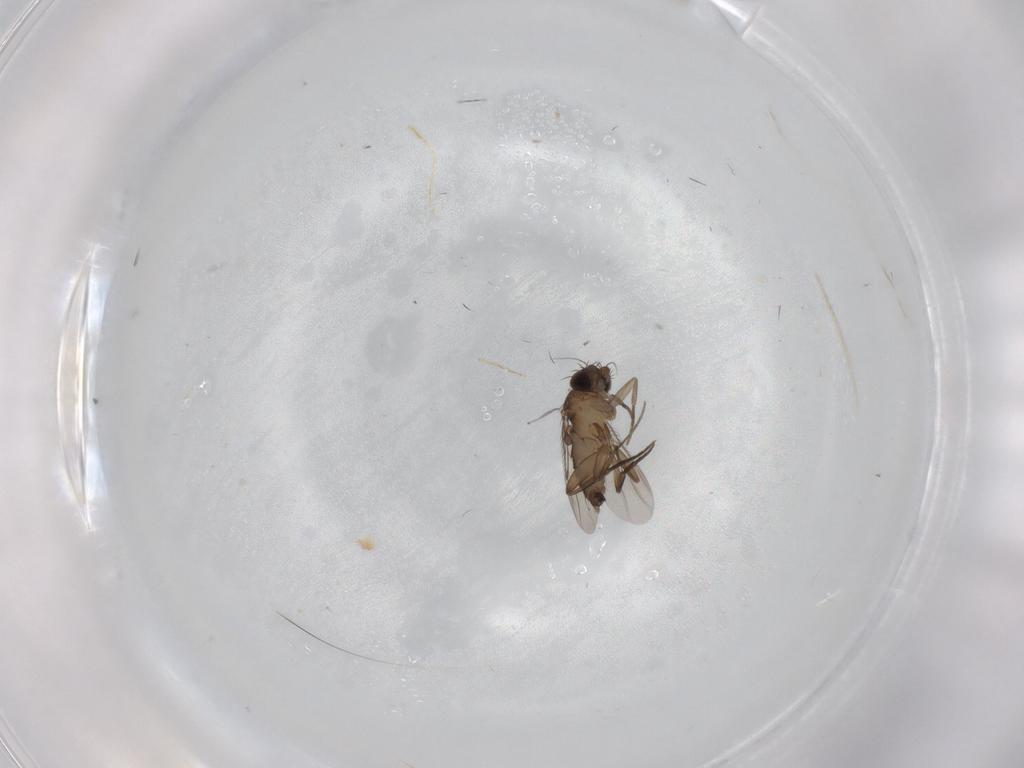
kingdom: Animalia
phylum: Arthropoda
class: Insecta
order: Diptera
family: Phoridae
